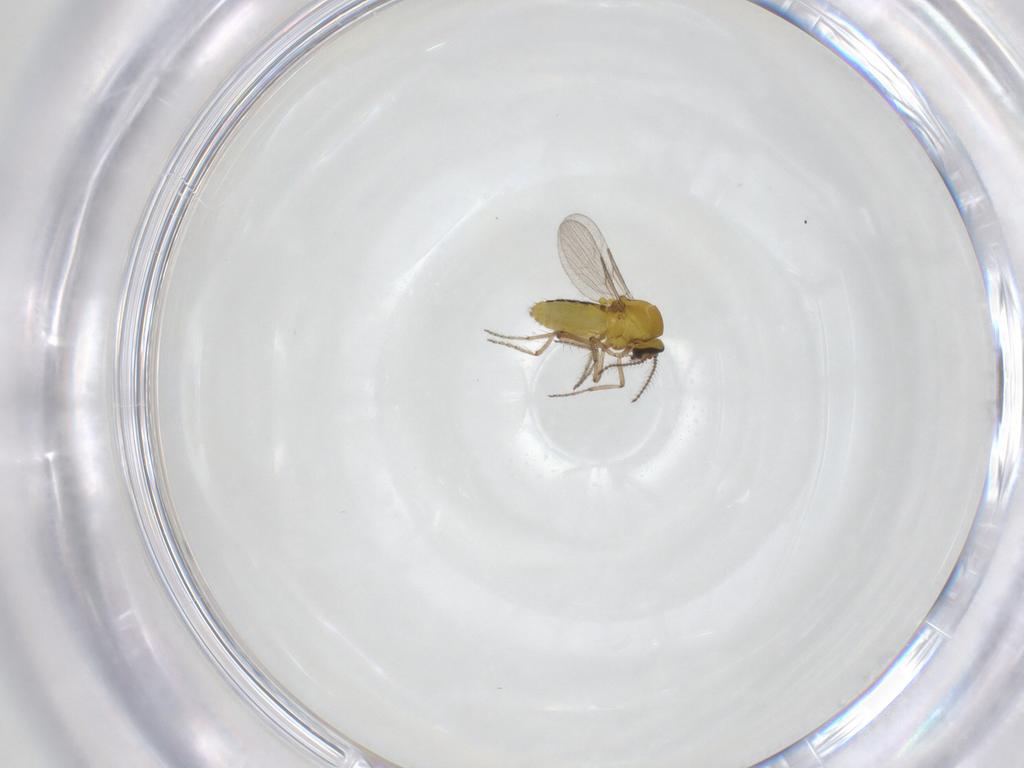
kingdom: Animalia
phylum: Arthropoda
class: Insecta
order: Diptera
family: Ceratopogonidae
